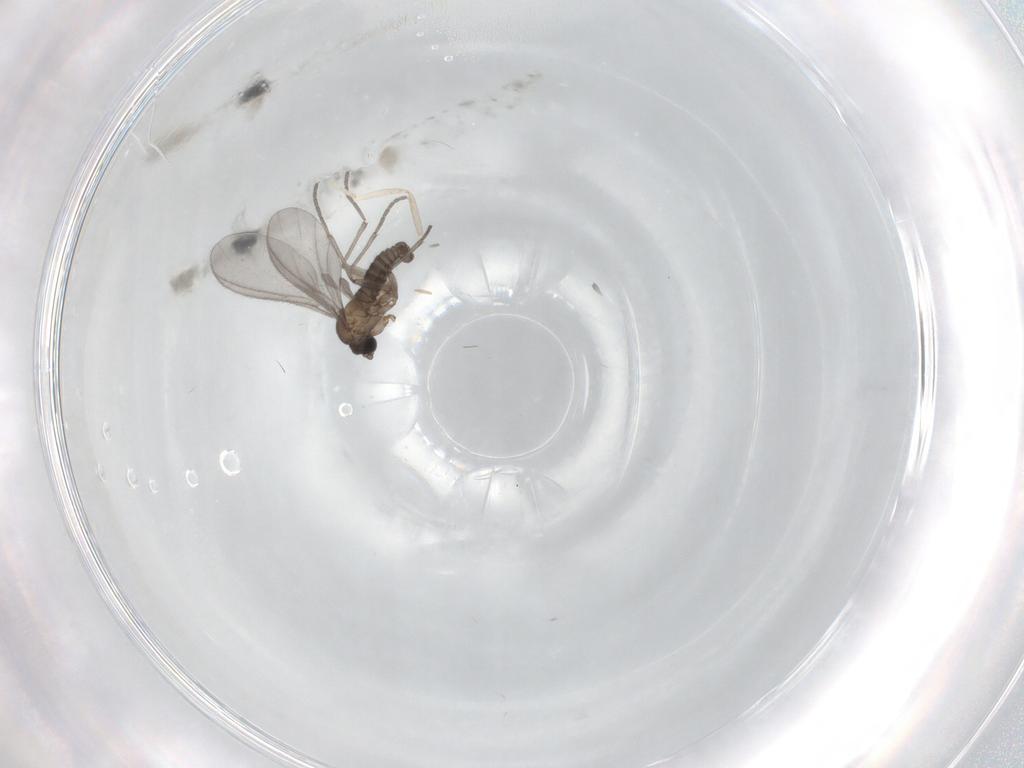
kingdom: Animalia
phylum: Arthropoda
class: Insecta
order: Diptera
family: Sciaridae
